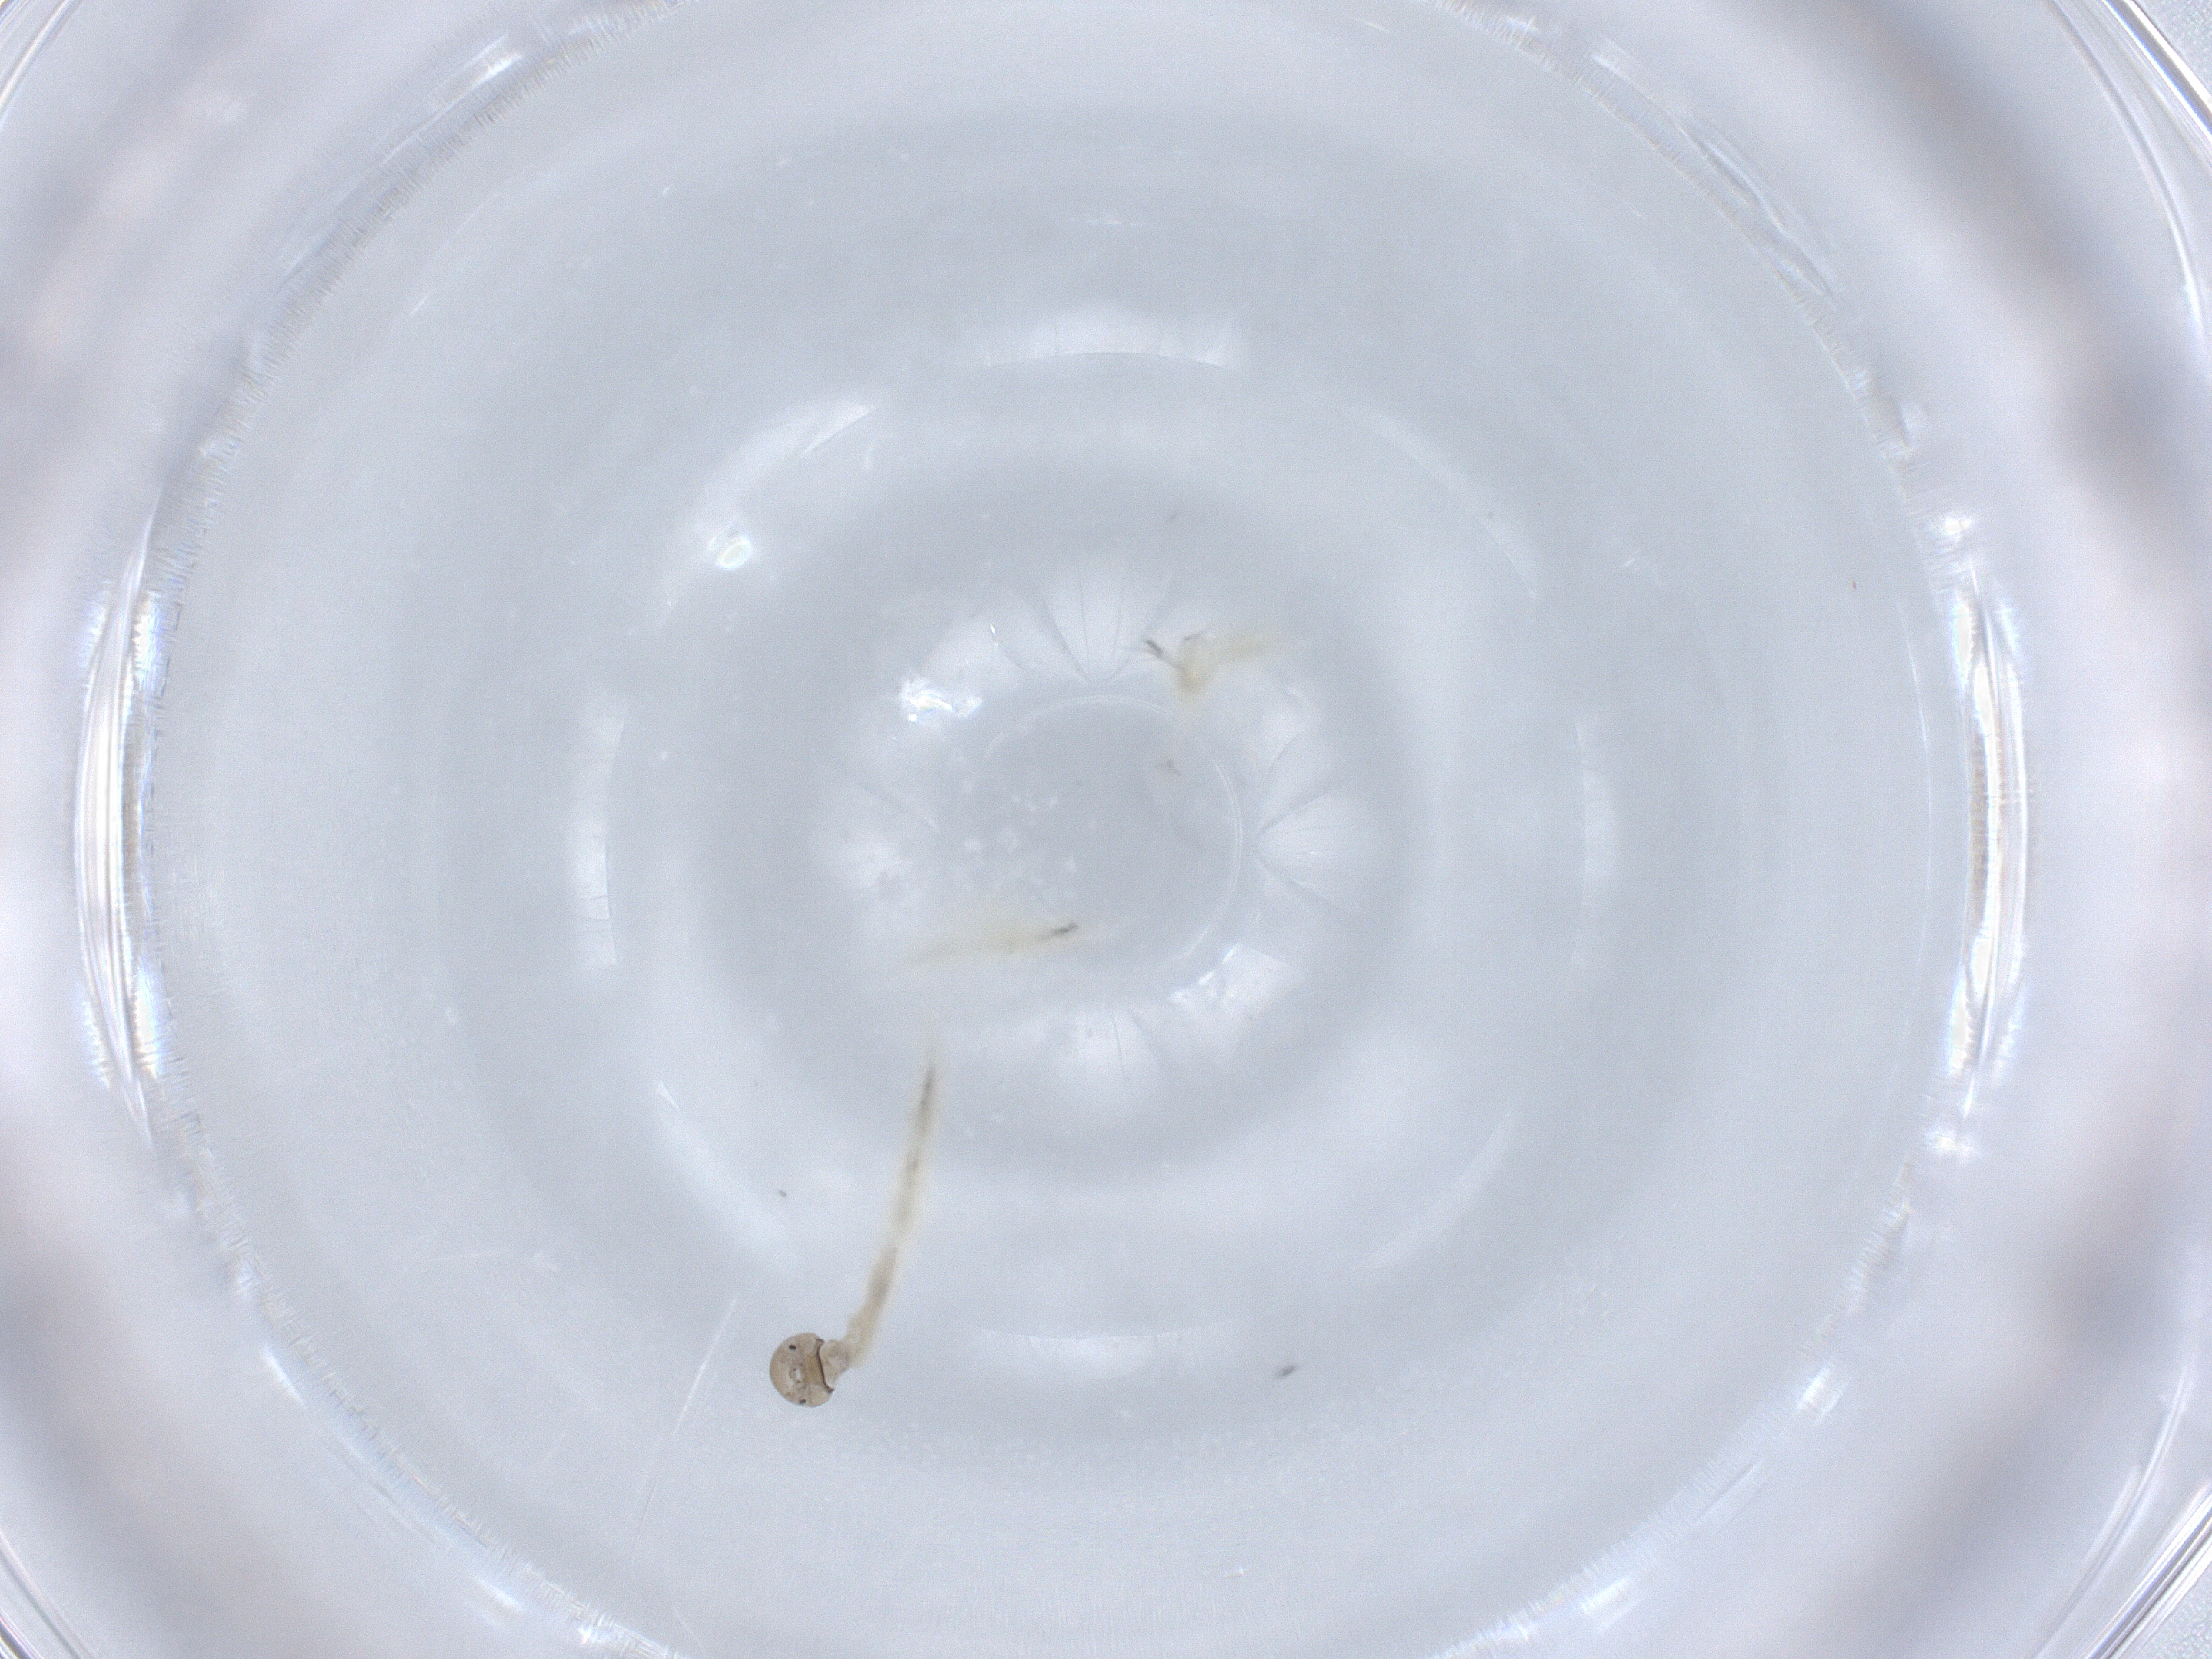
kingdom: Animalia
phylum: Arthropoda
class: Insecta
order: Diptera
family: Chironomidae
